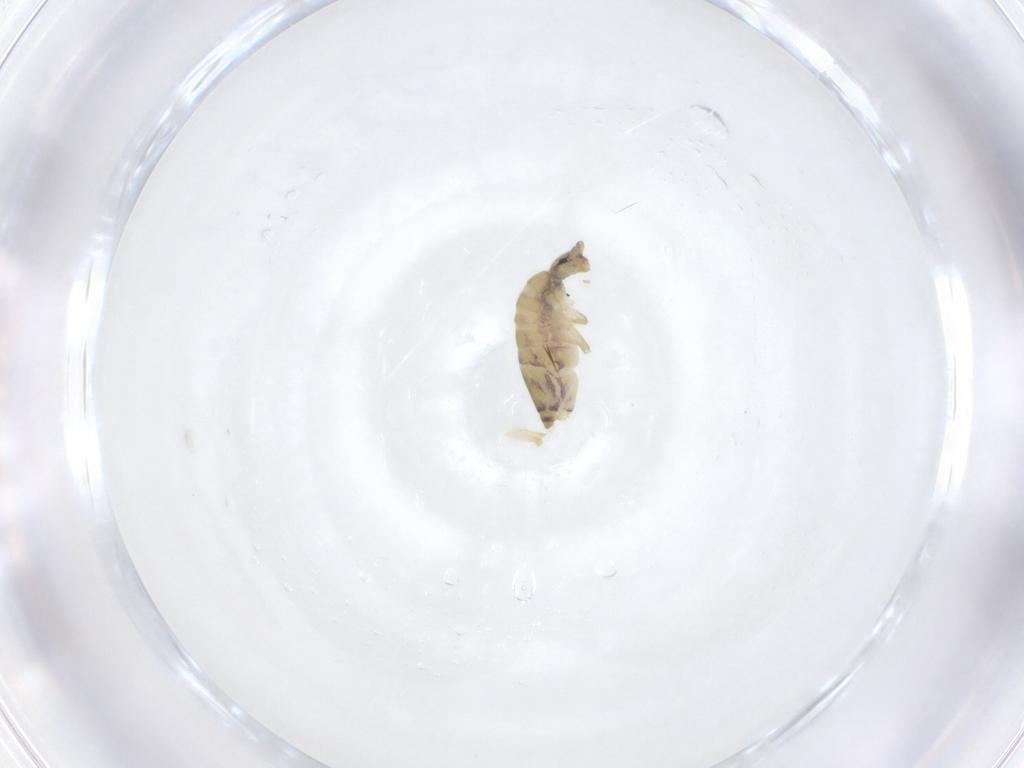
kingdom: Animalia
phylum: Arthropoda
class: Collembola
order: Entomobryomorpha
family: Entomobryidae
